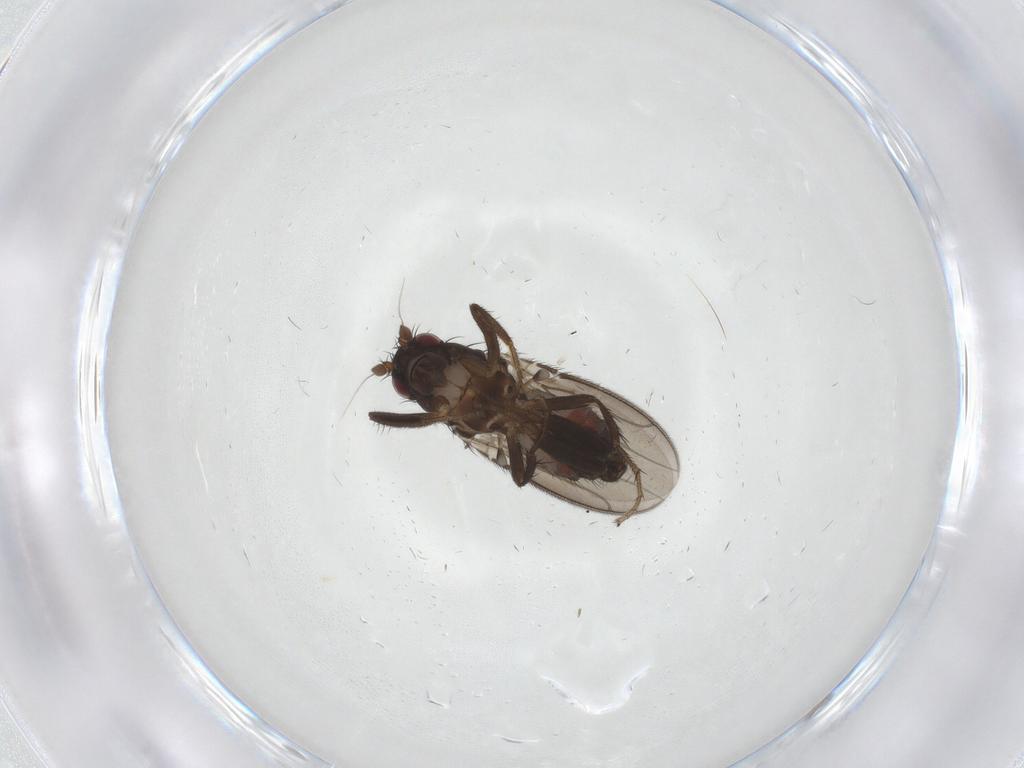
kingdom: Animalia
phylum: Arthropoda
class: Insecta
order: Diptera
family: Sphaeroceridae
